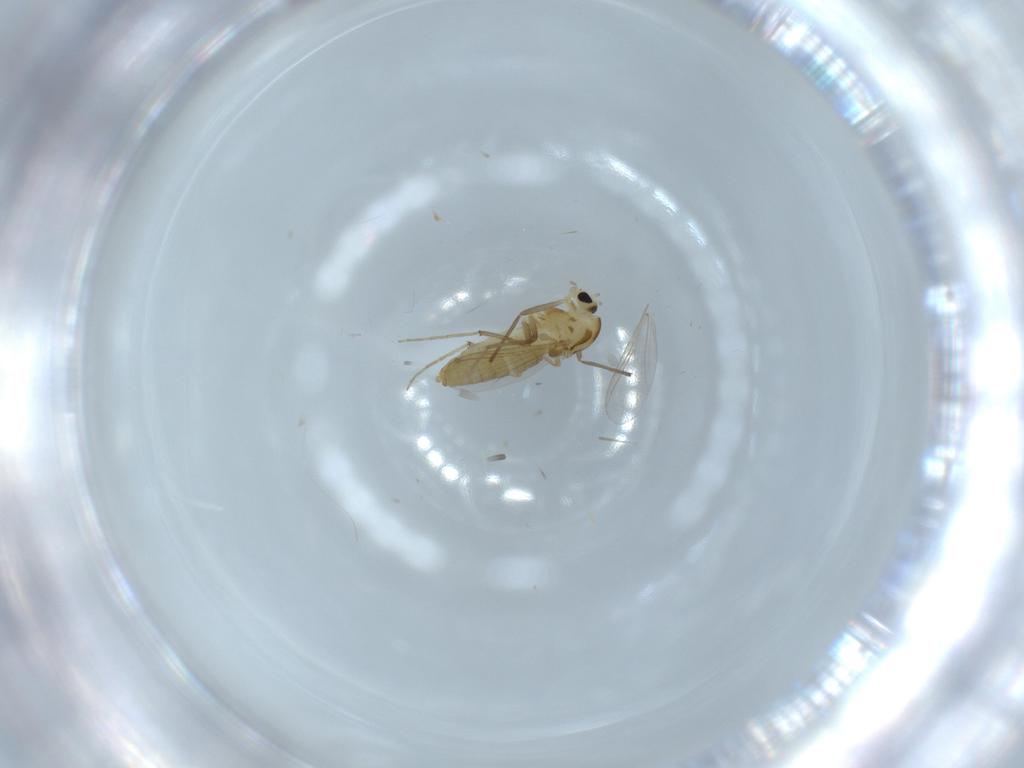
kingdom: Animalia
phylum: Arthropoda
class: Insecta
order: Diptera
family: Chironomidae
